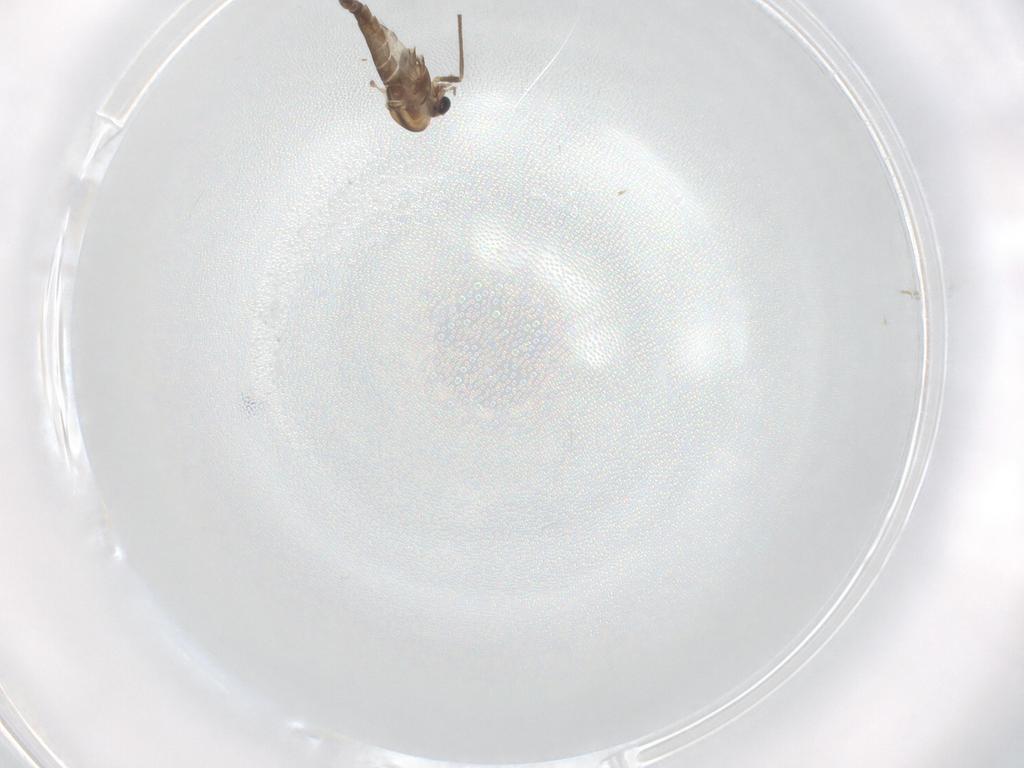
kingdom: Animalia
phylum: Arthropoda
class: Insecta
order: Diptera
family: Chironomidae
